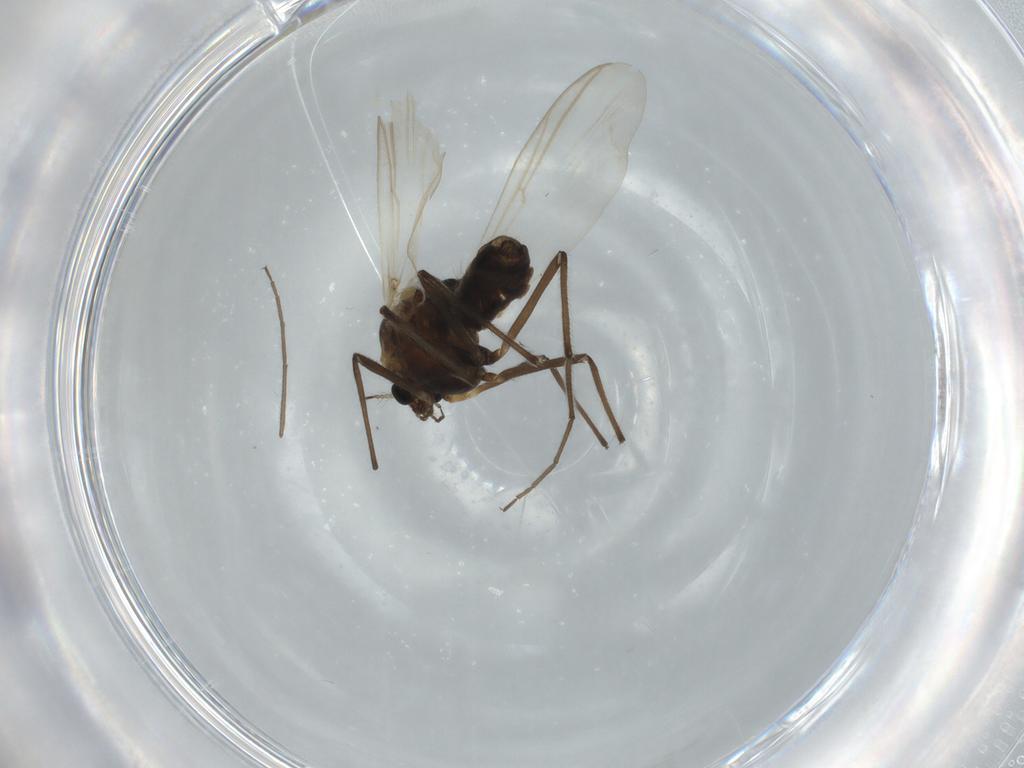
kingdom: Animalia
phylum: Arthropoda
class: Insecta
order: Diptera
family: Chironomidae
